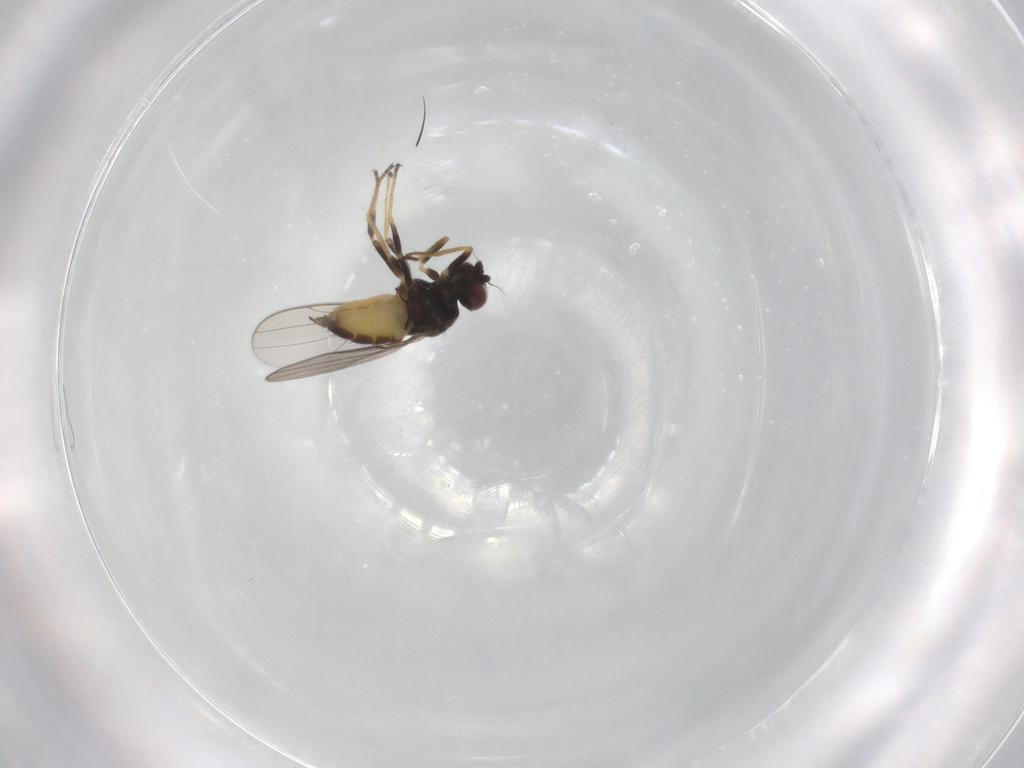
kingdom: Animalia
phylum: Arthropoda
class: Insecta
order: Diptera
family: Chloropidae
